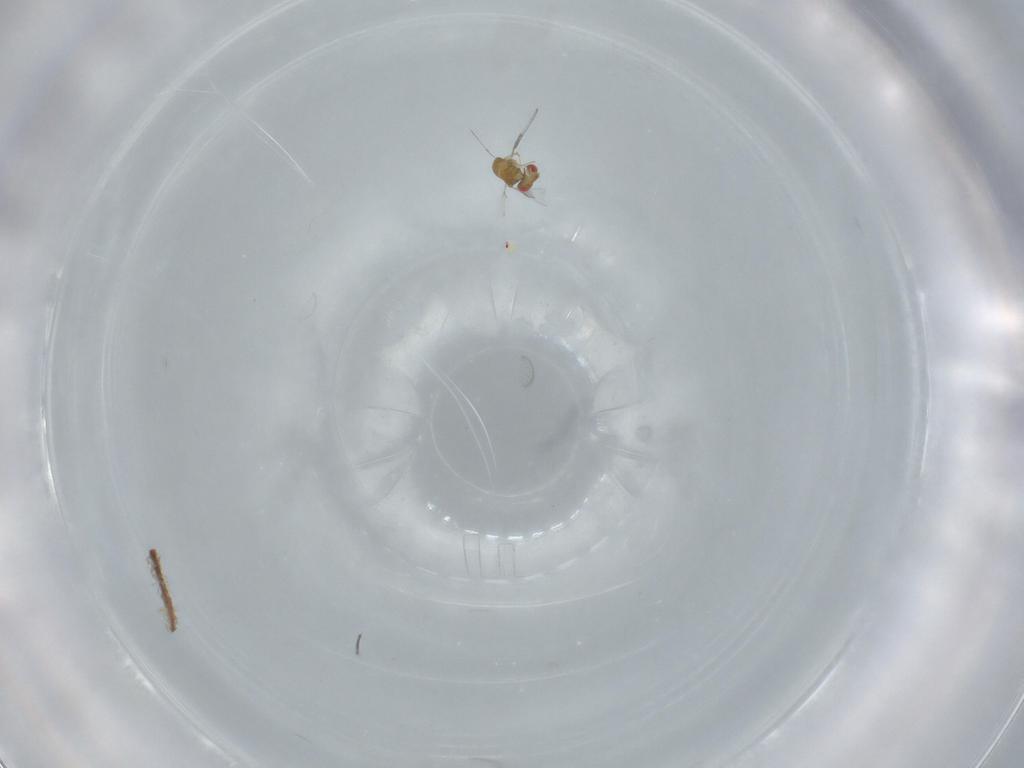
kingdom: Animalia
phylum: Arthropoda
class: Insecta
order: Hymenoptera
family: Trichogrammatidae
